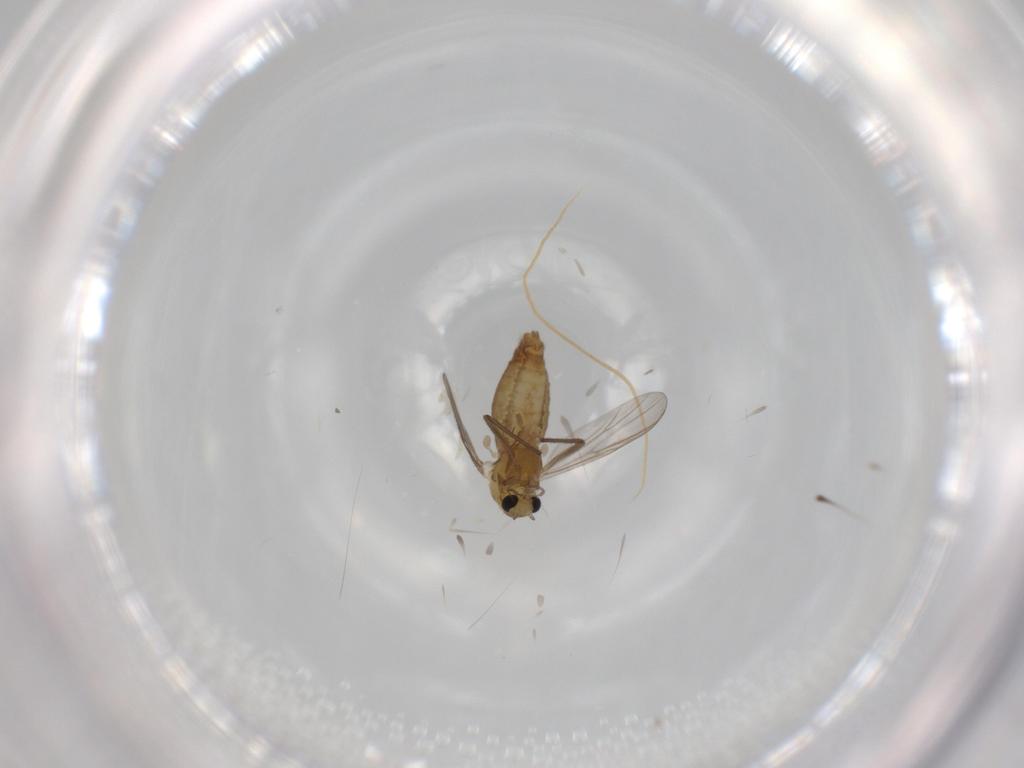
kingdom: Animalia
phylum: Arthropoda
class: Insecta
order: Diptera
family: Chironomidae
